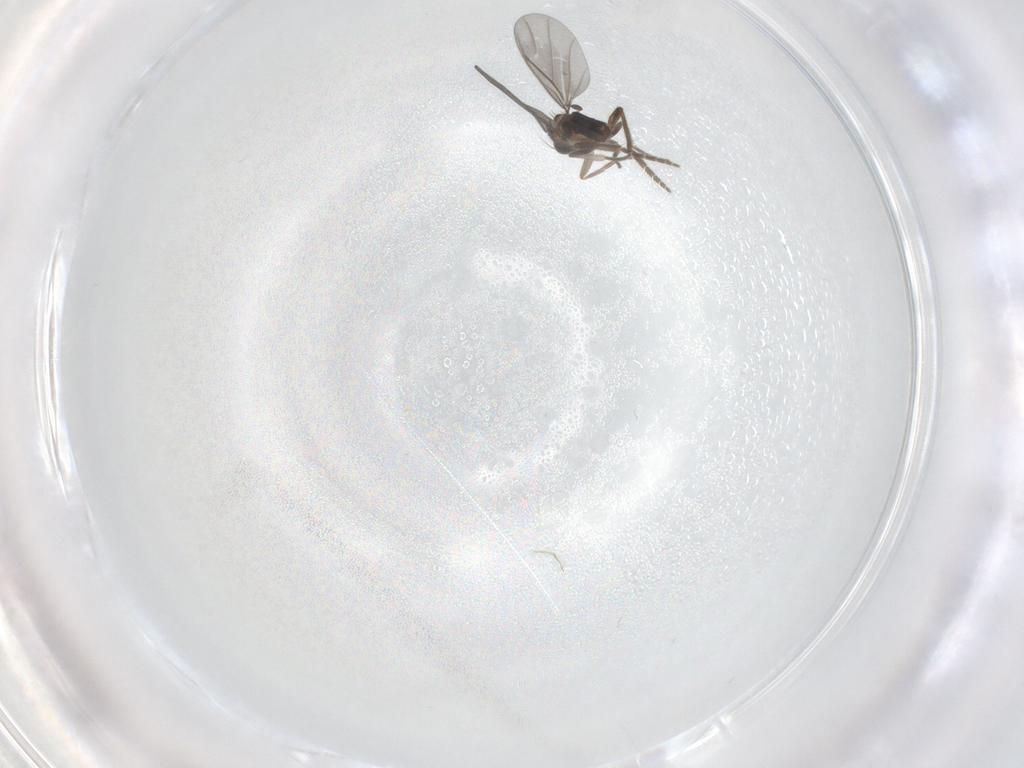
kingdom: Animalia
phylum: Arthropoda
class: Insecta
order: Diptera
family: Phoridae
